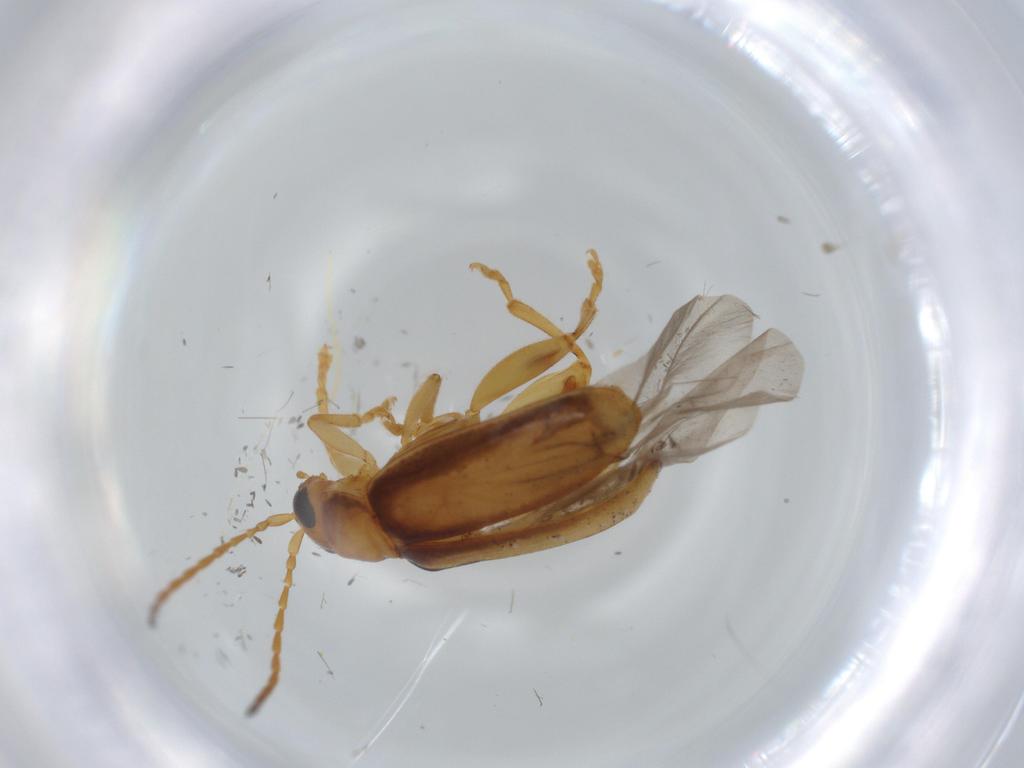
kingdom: Animalia
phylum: Arthropoda
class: Insecta
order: Coleoptera
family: Chrysomelidae
